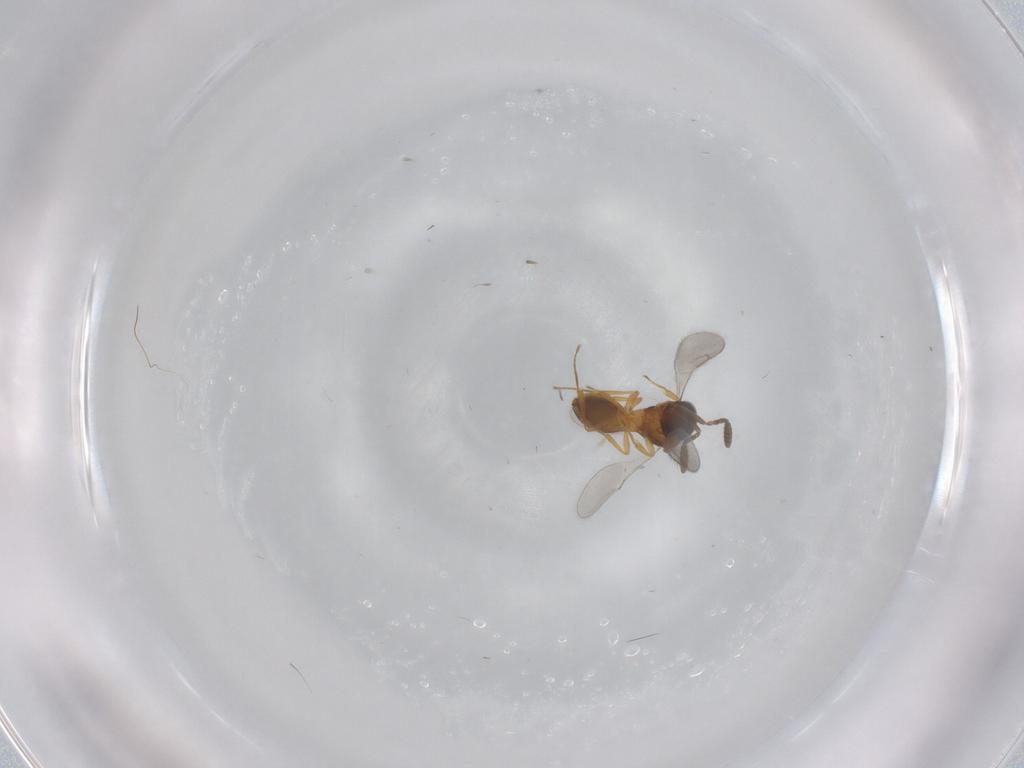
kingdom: Animalia
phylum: Arthropoda
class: Insecta
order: Hymenoptera
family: Scelionidae
